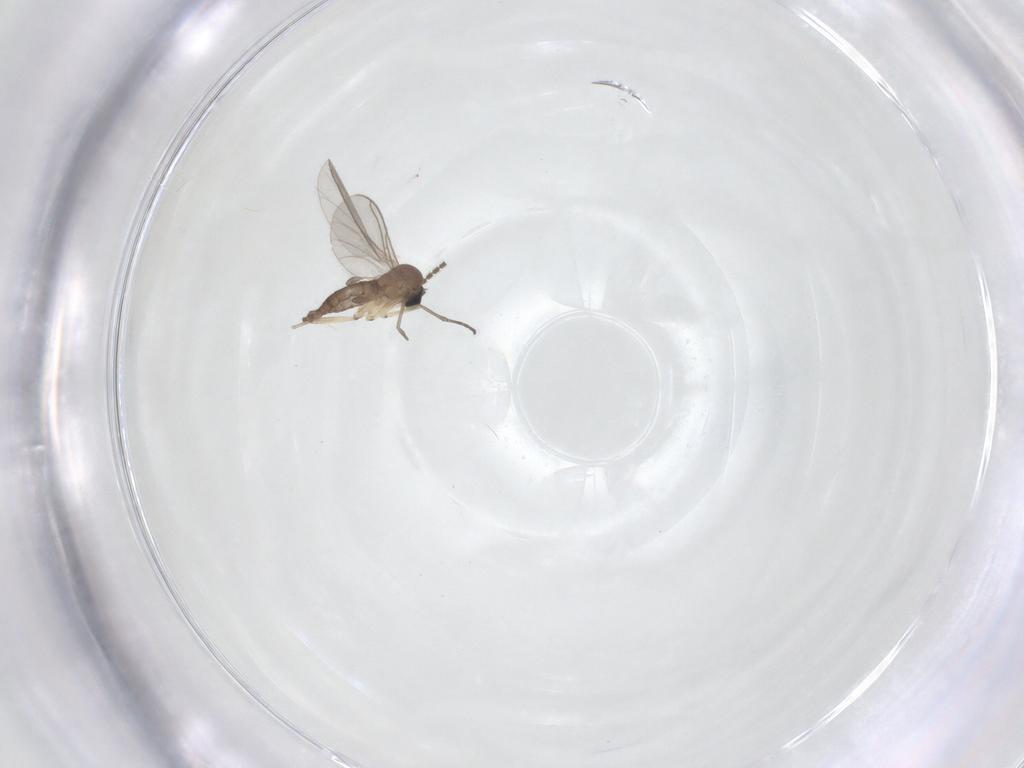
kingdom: Animalia
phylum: Arthropoda
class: Insecta
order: Diptera
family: Sciaridae
